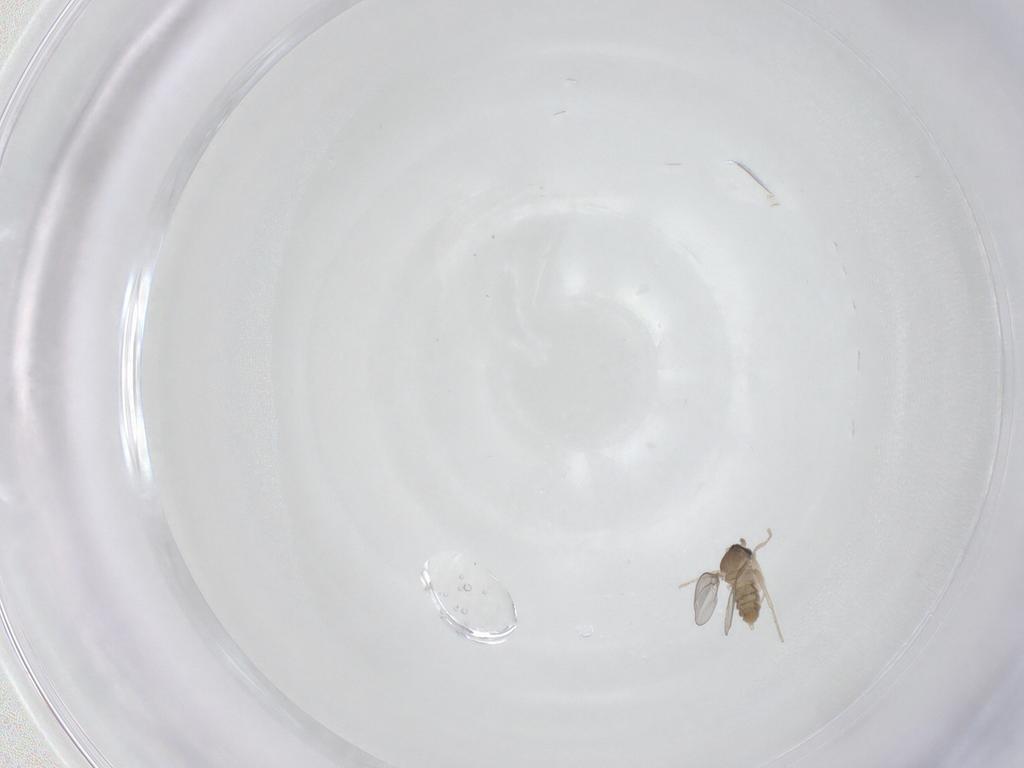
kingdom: Animalia
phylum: Arthropoda
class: Insecta
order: Diptera
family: Cecidomyiidae
